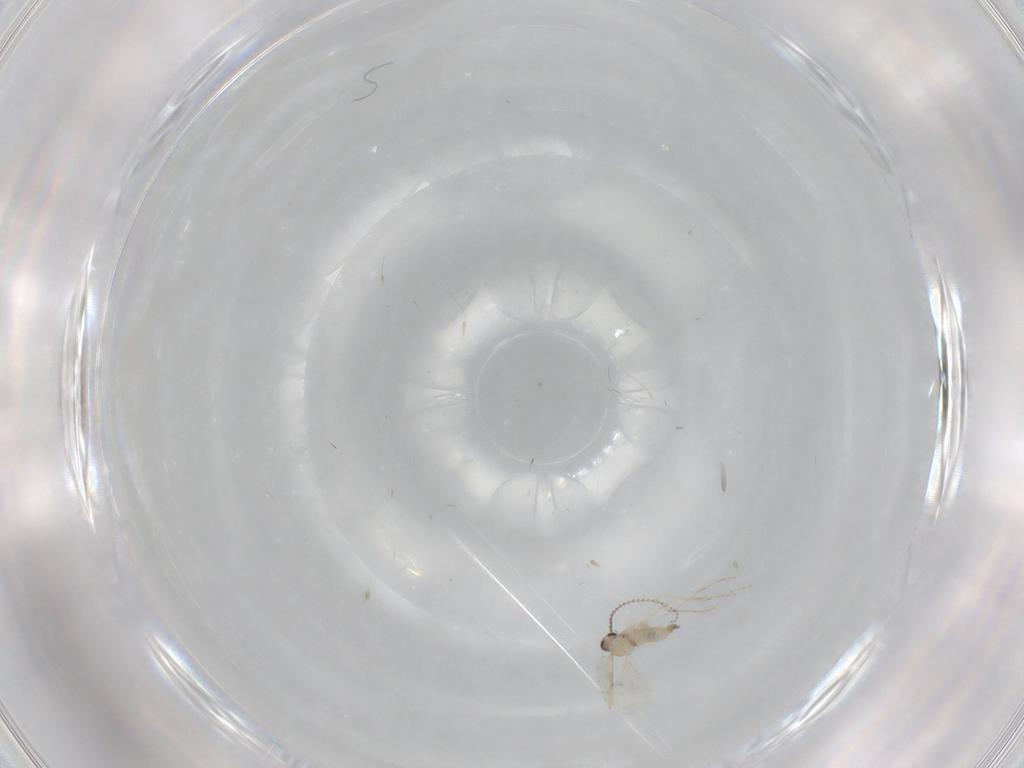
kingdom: Animalia
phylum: Arthropoda
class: Insecta
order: Diptera
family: Cecidomyiidae
